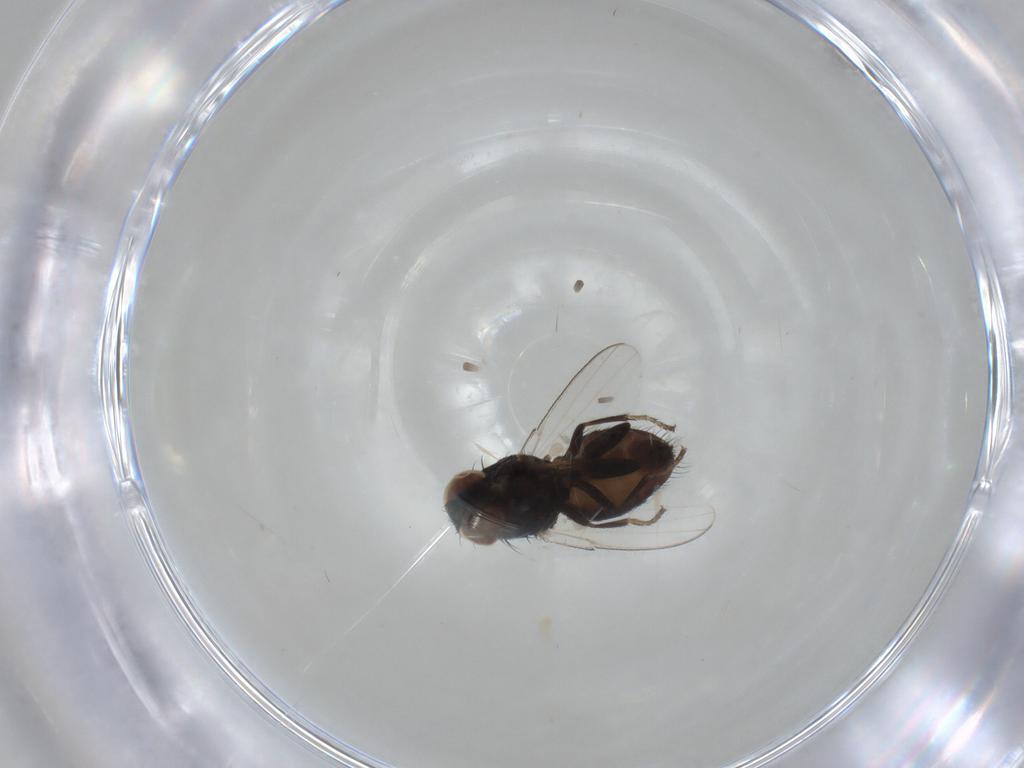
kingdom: Animalia
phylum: Arthropoda
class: Insecta
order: Diptera
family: Milichiidae
